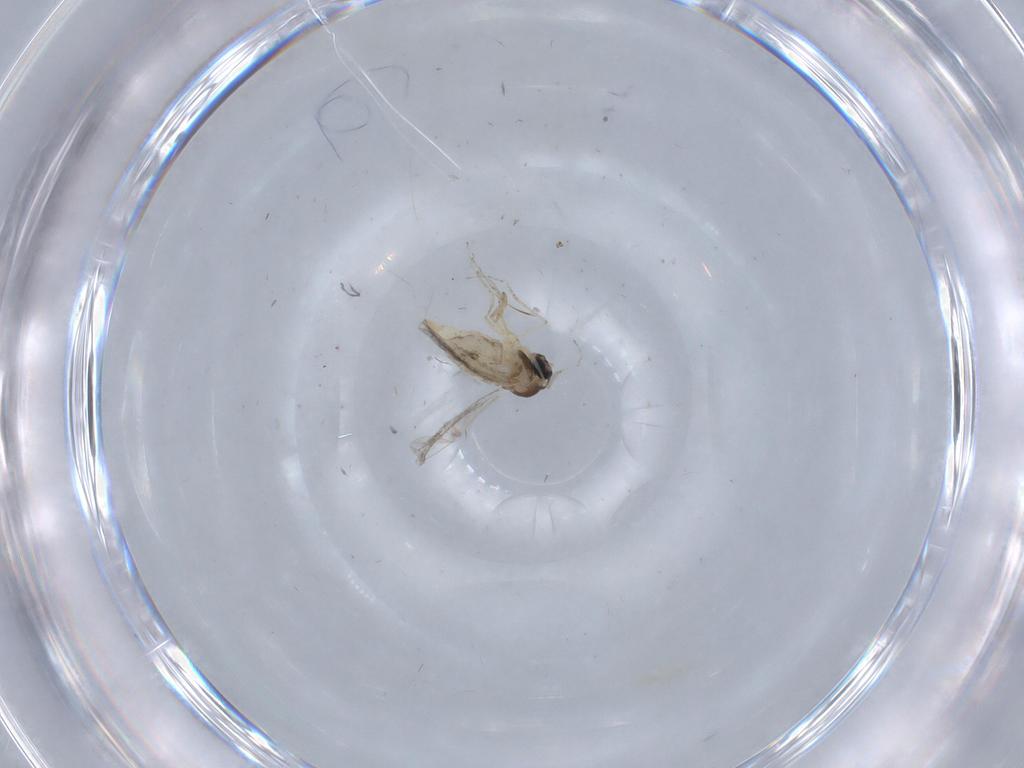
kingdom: Animalia
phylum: Arthropoda
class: Insecta
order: Diptera
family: Cecidomyiidae
